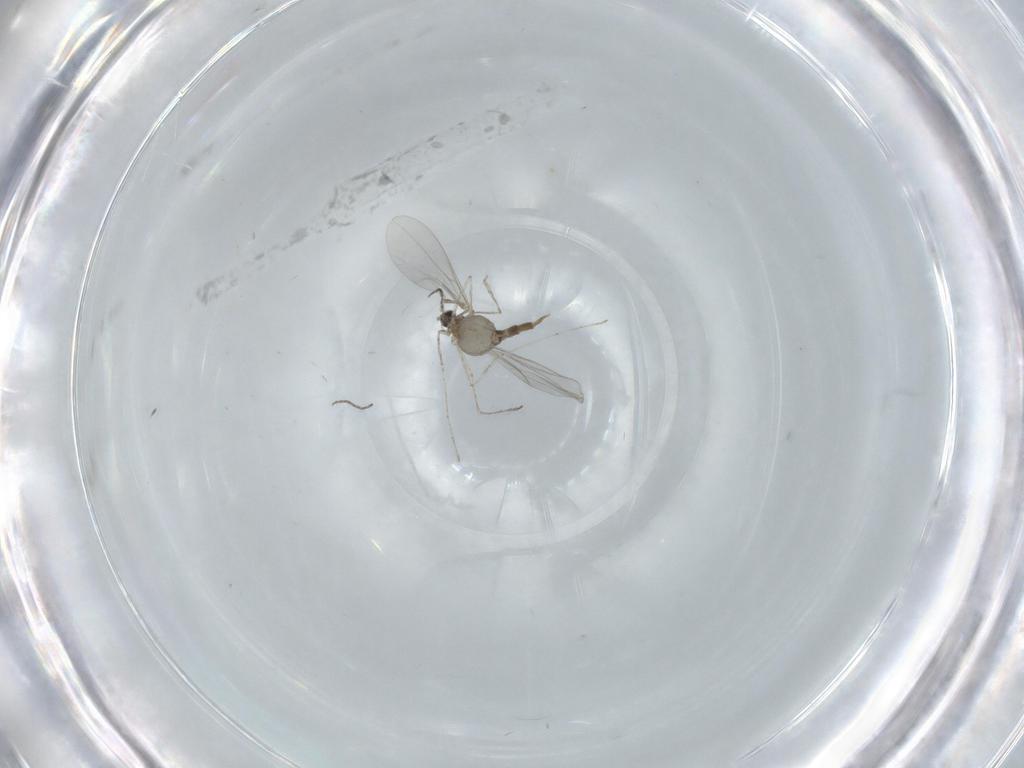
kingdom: Animalia
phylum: Arthropoda
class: Insecta
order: Diptera
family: Cecidomyiidae
